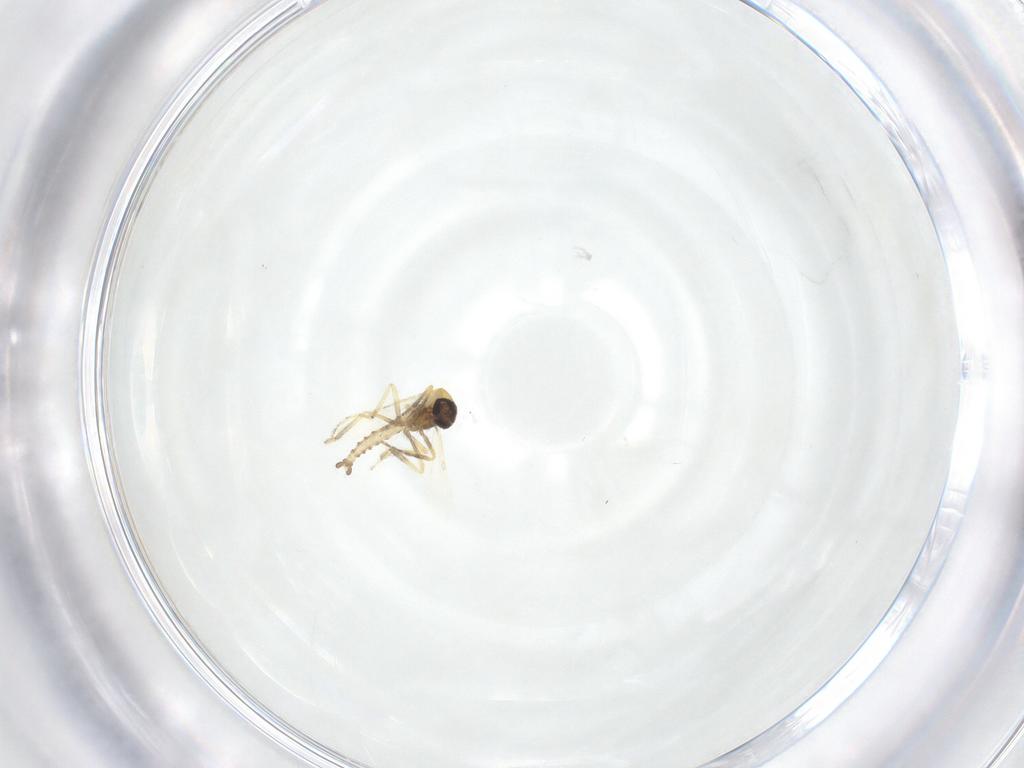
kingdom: Animalia
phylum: Arthropoda
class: Insecta
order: Diptera
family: Ceratopogonidae
